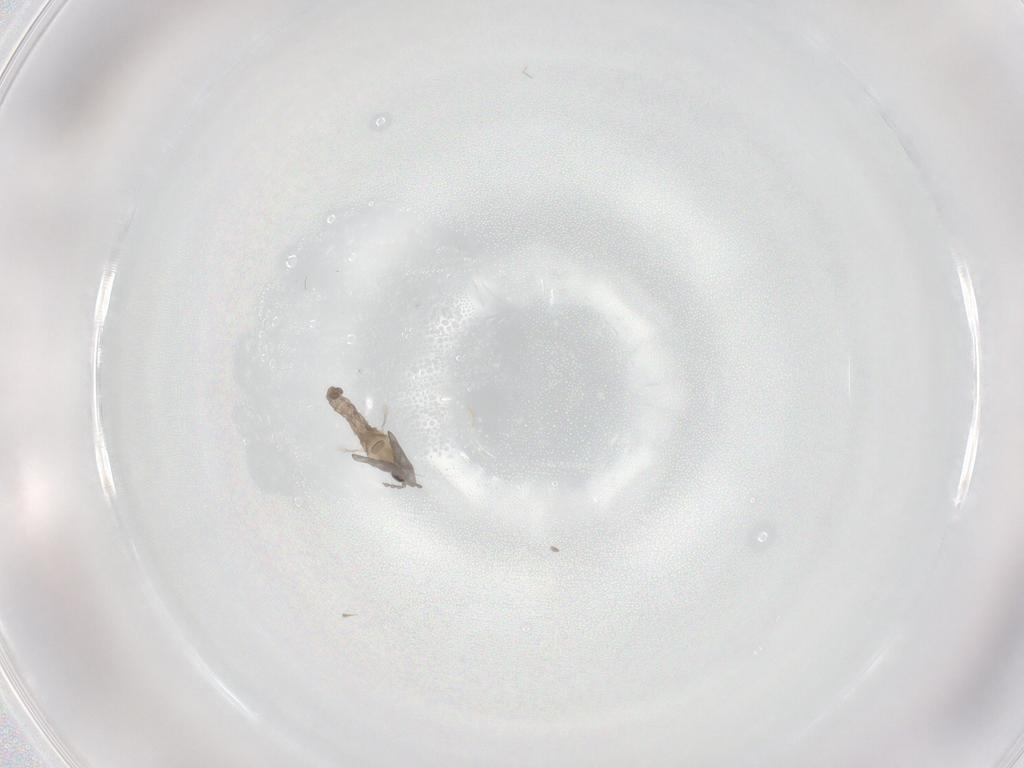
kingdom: Animalia
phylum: Arthropoda
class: Insecta
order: Diptera
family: Cecidomyiidae
